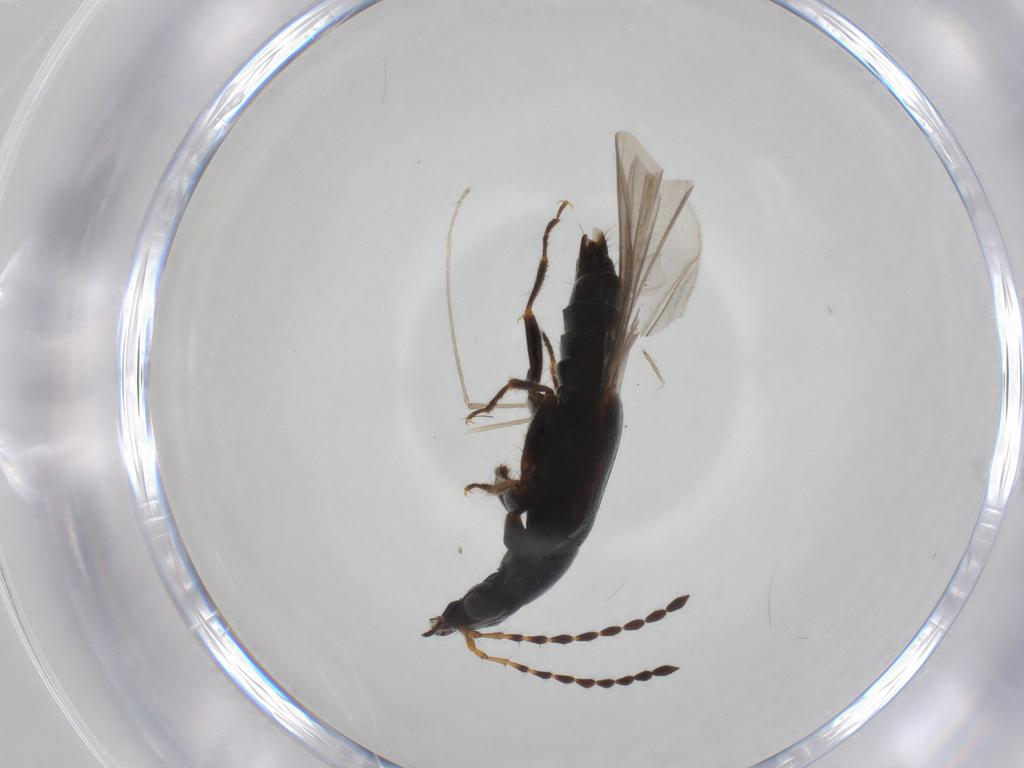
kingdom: Animalia
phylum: Arthropoda
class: Insecta
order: Coleoptera
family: Staphylinidae
